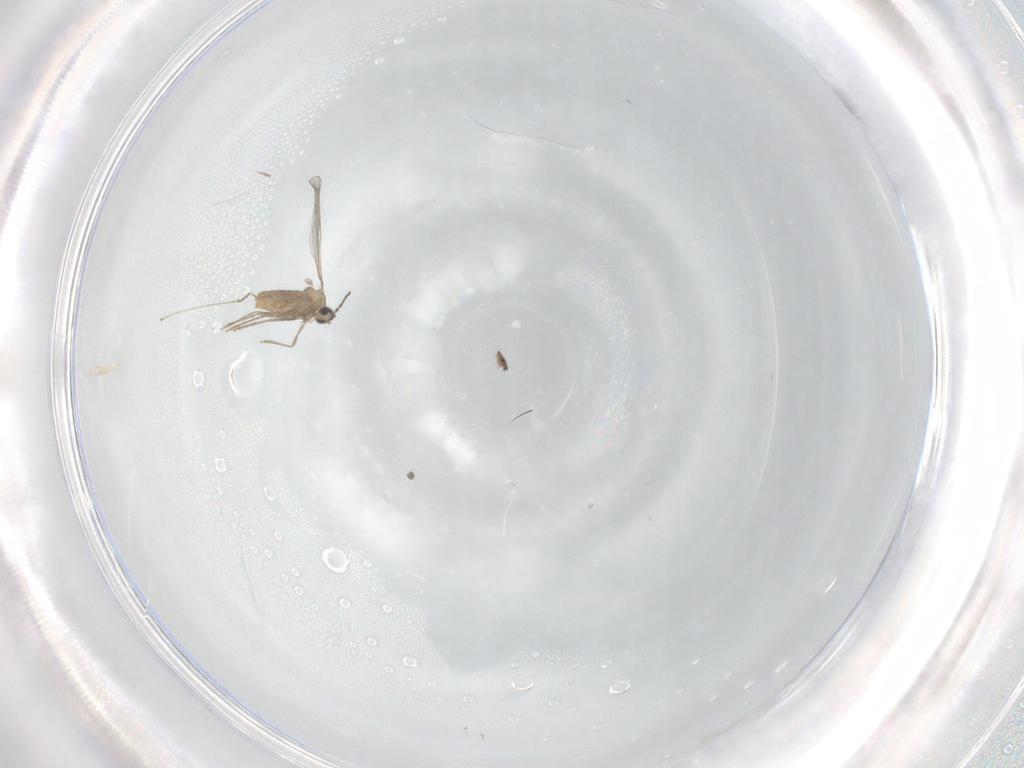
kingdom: Animalia
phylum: Arthropoda
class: Insecta
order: Diptera
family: Cecidomyiidae
